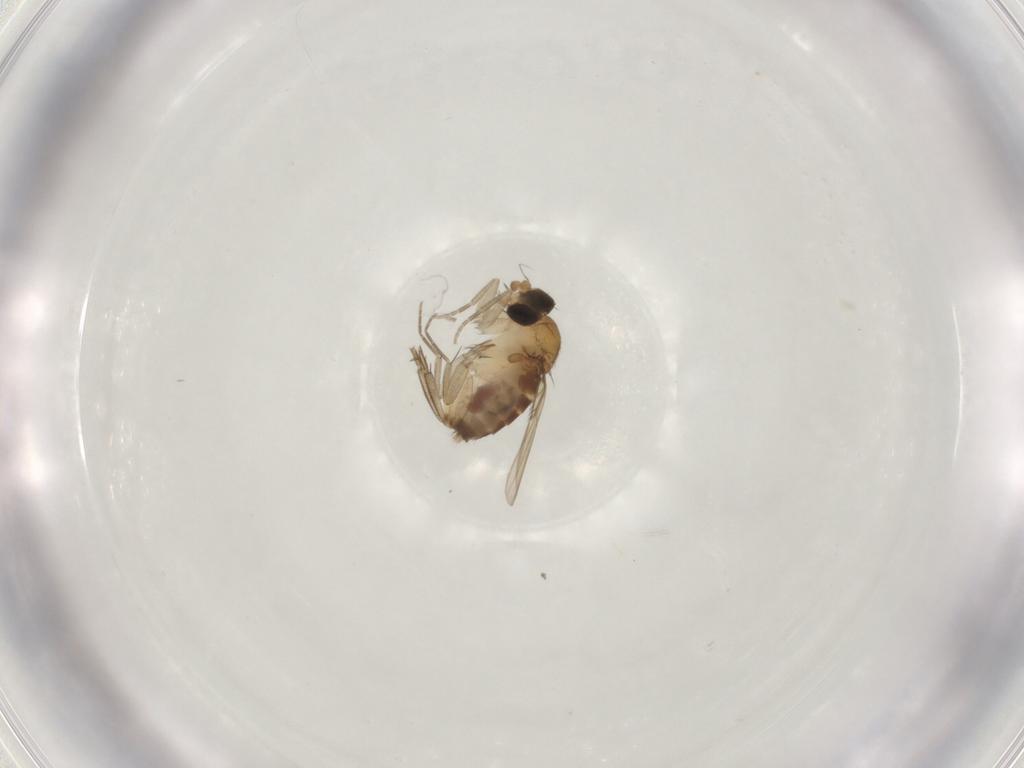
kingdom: Animalia
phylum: Arthropoda
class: Insecta
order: Diptera
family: Phoridae
